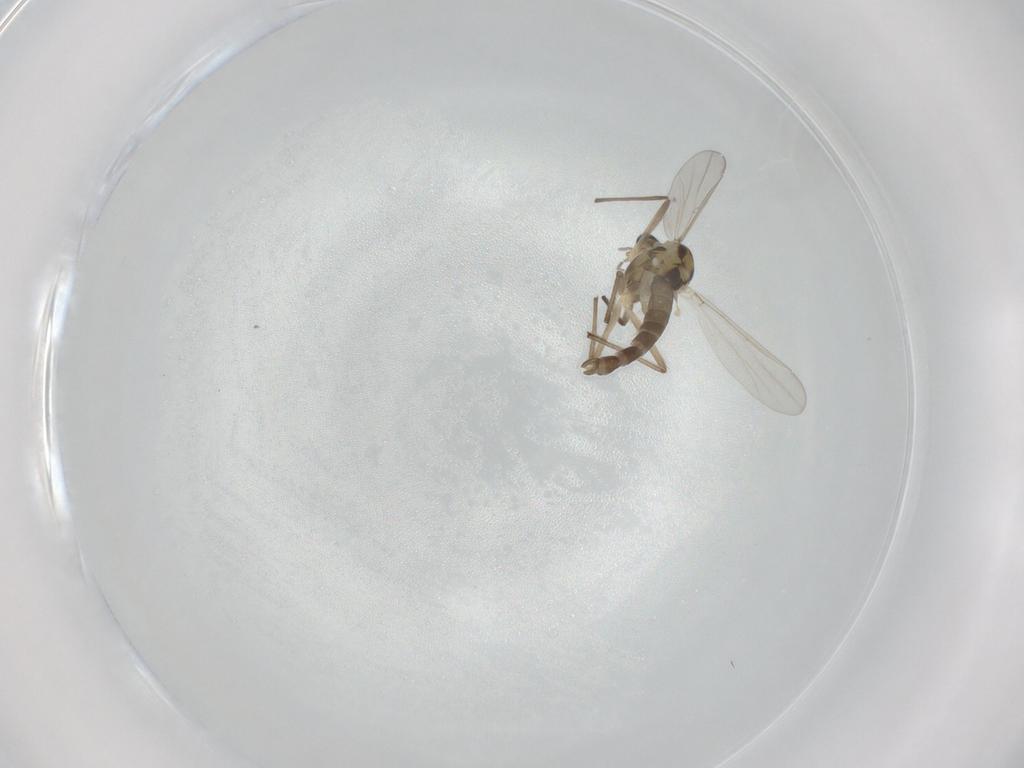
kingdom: Animalia
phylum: Arthropoda
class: Insecta
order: Diptera
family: Chironomidae
